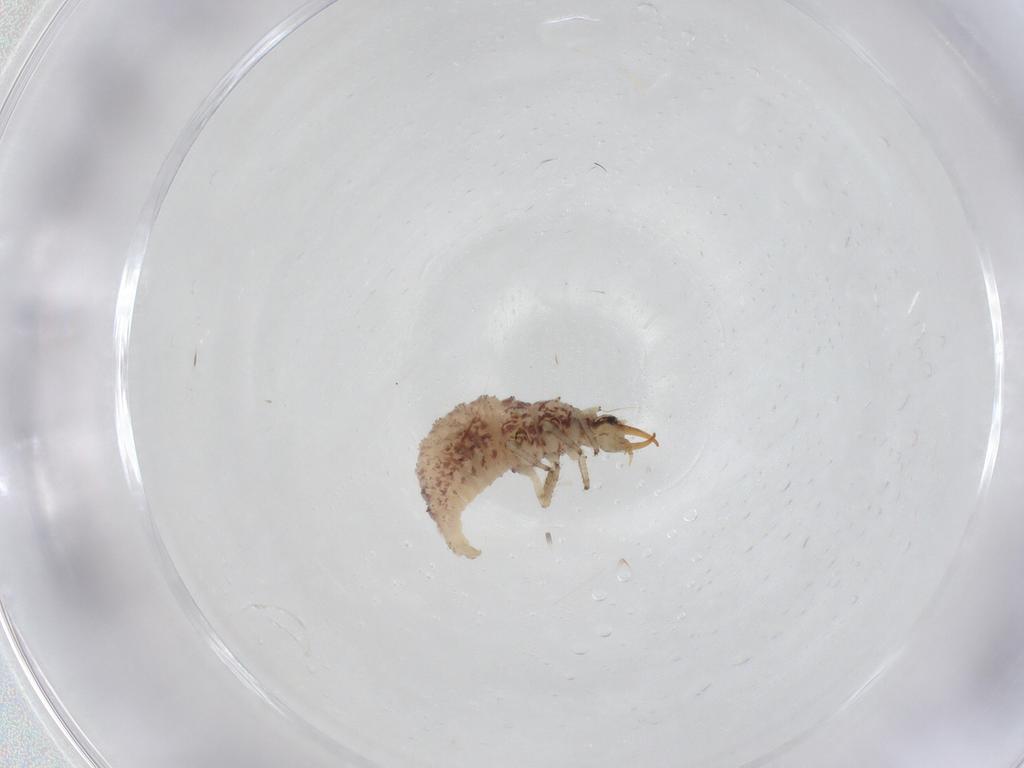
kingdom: Animalia
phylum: Arthropoda
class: Insecta
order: Neuroptera
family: Chrysopidae
